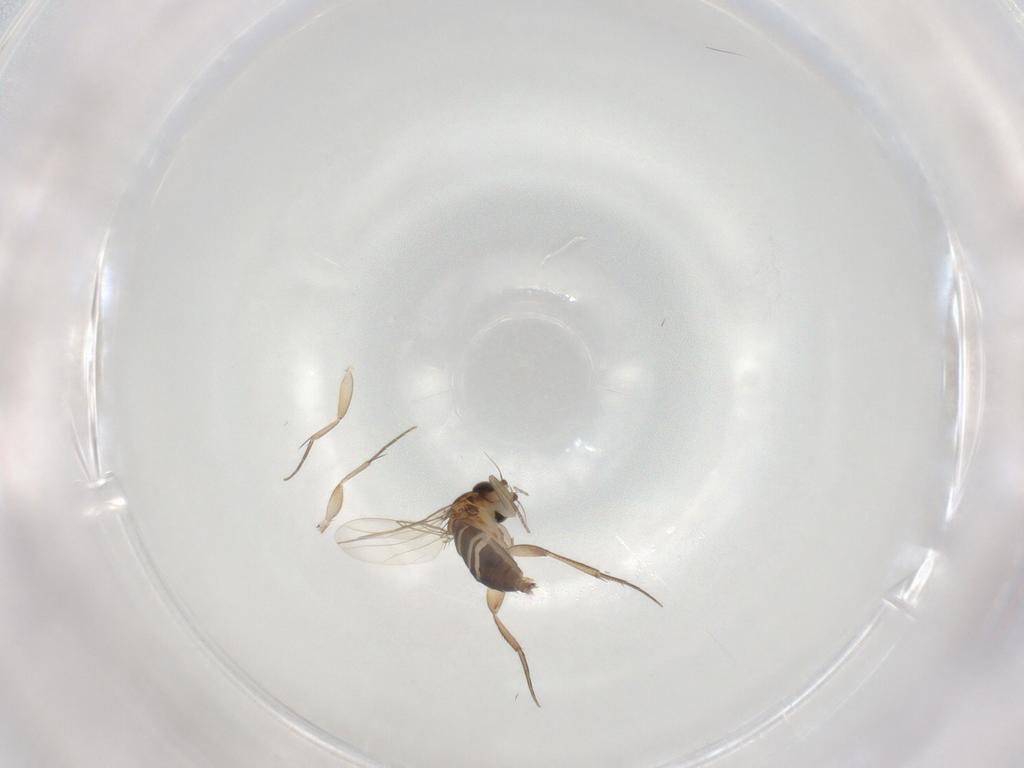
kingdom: Animalia
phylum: Arthropoda
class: Insecta
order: Diptera
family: Phoridae
